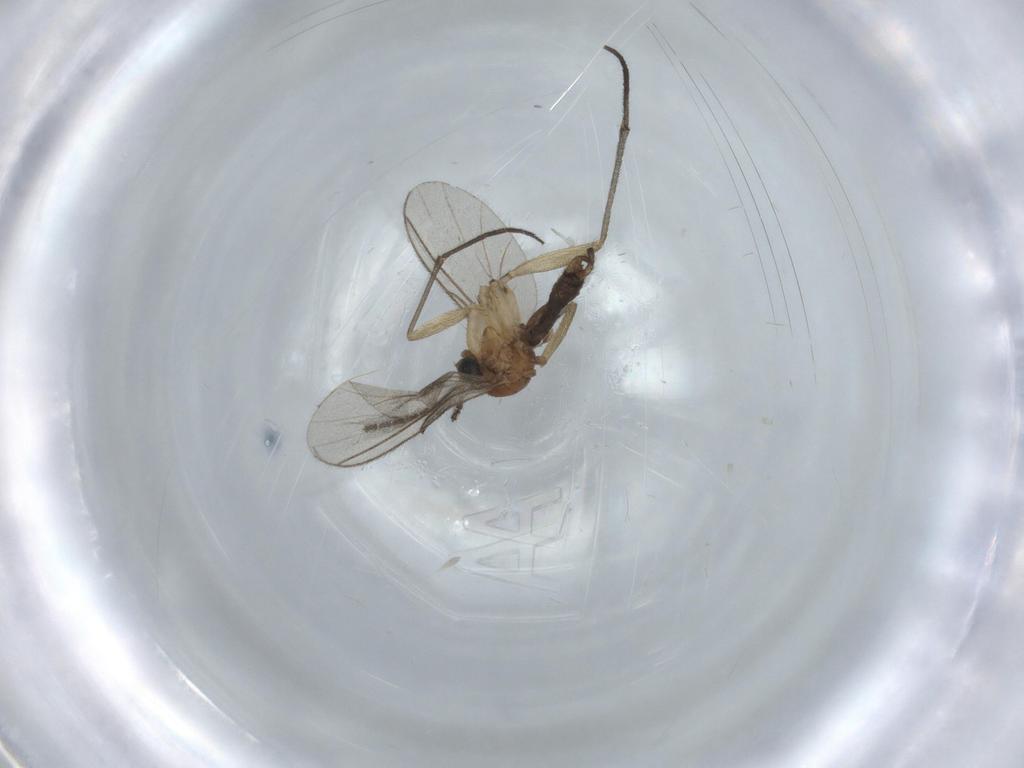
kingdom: Animalia
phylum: Arthropoda
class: Insecta
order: Diptera
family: Sciaridae
